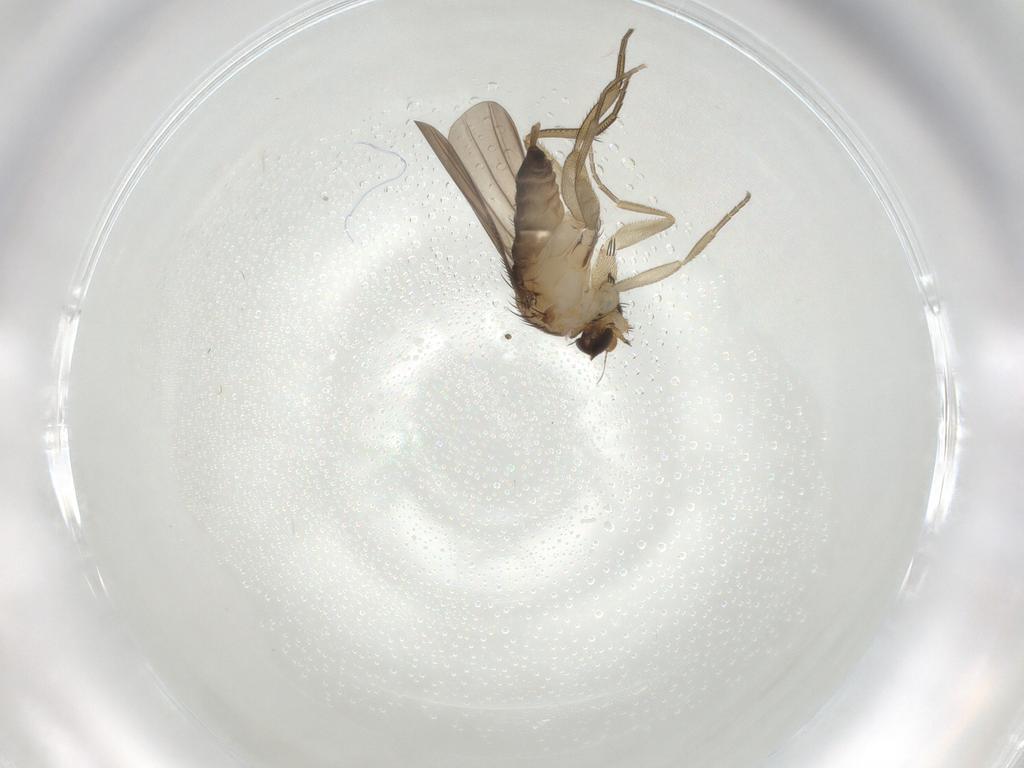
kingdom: Animalia
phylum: Arthropoda
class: Insecta
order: Diptera
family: Phoridae
